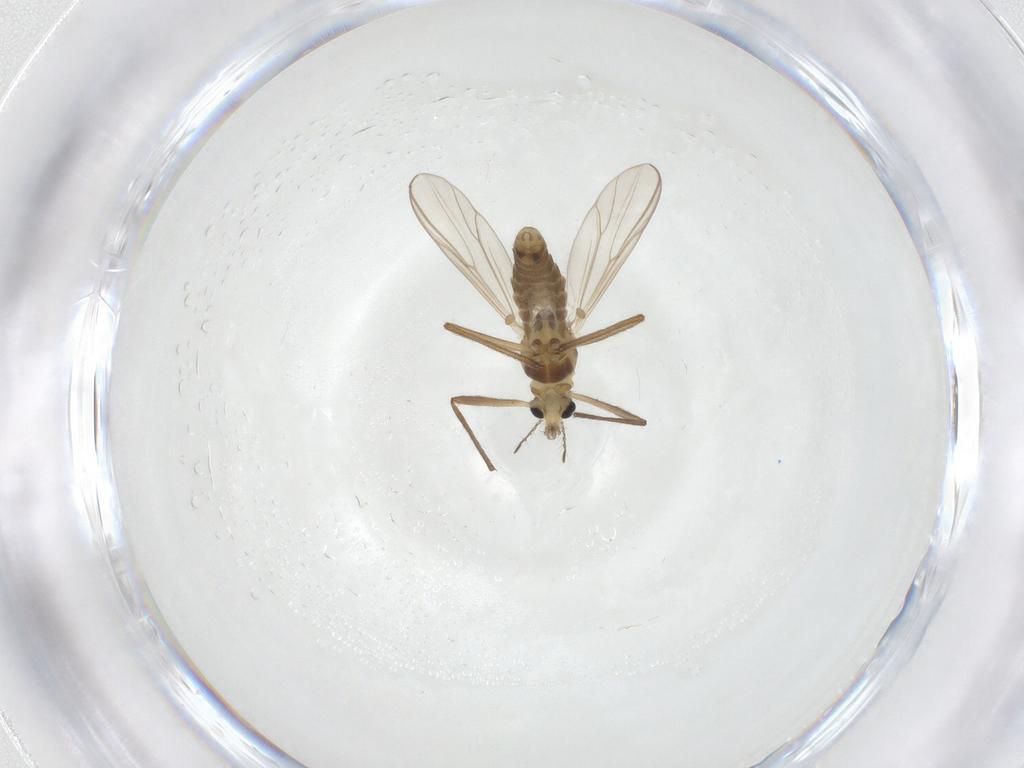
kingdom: Animalia
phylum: Arthropoda
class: Insecta
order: Diptera
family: Chironomidae
